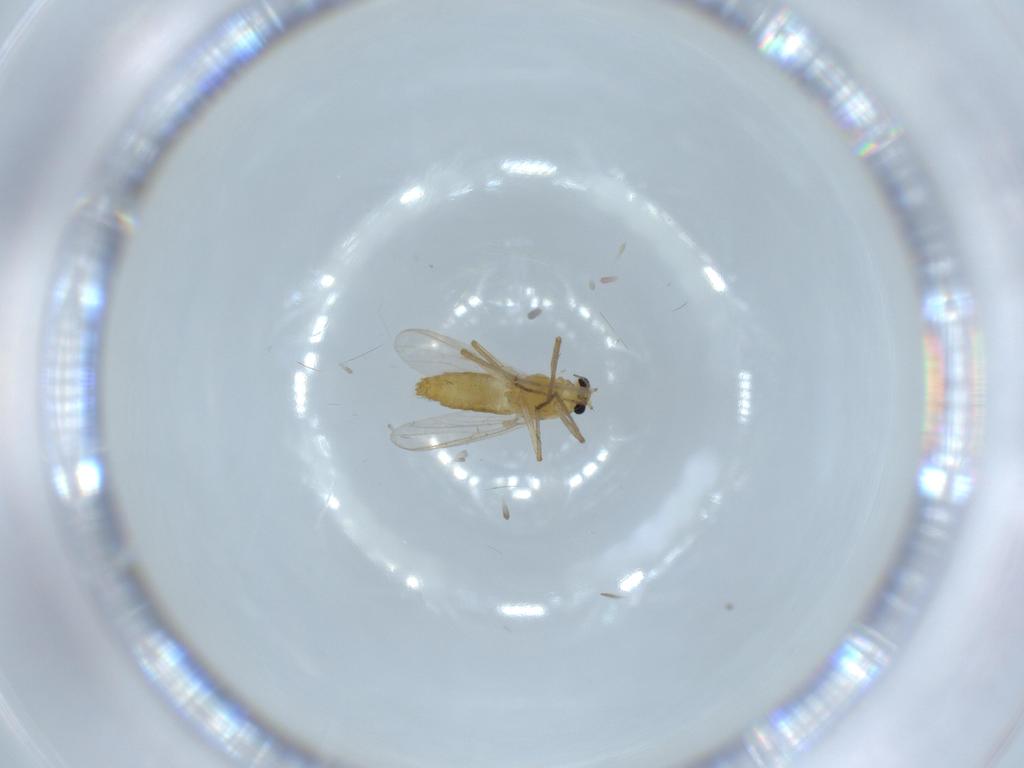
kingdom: Animalia
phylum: Arthropoda
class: Insecta
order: Diptera
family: Chironomidae
